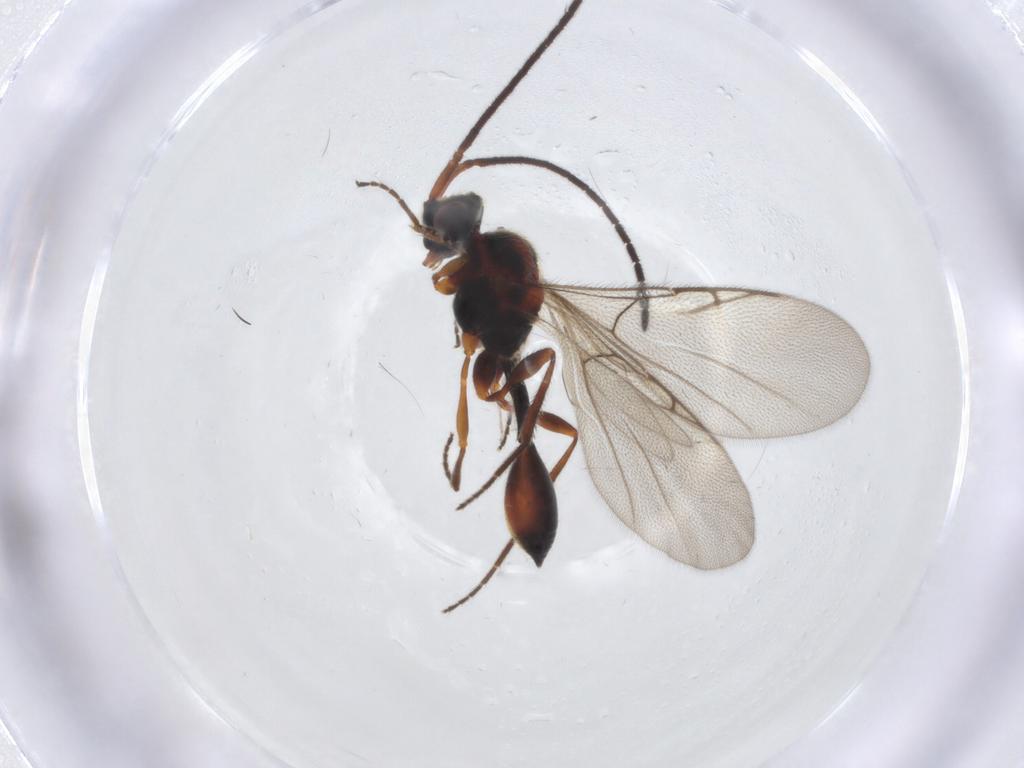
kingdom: Animalia
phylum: Arthropoda
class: Insecta
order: Hymenoptera
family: Diapriidae
